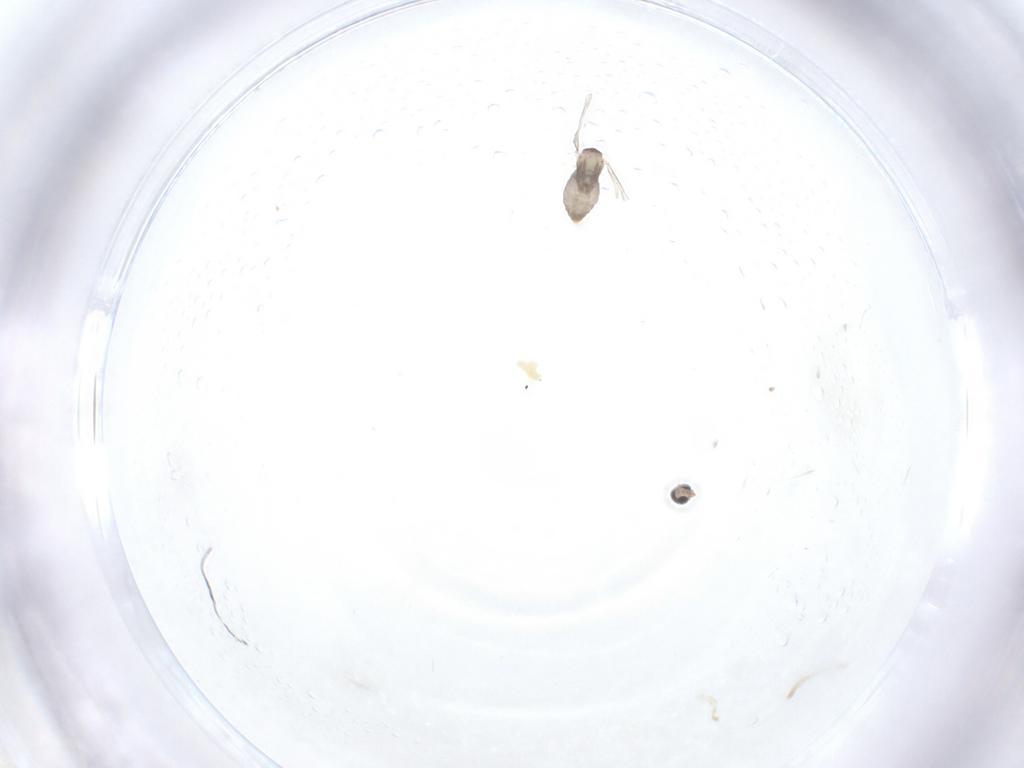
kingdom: Animalia
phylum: Arthropoda
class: Insecta
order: Diptera
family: Cecidomyiidae
